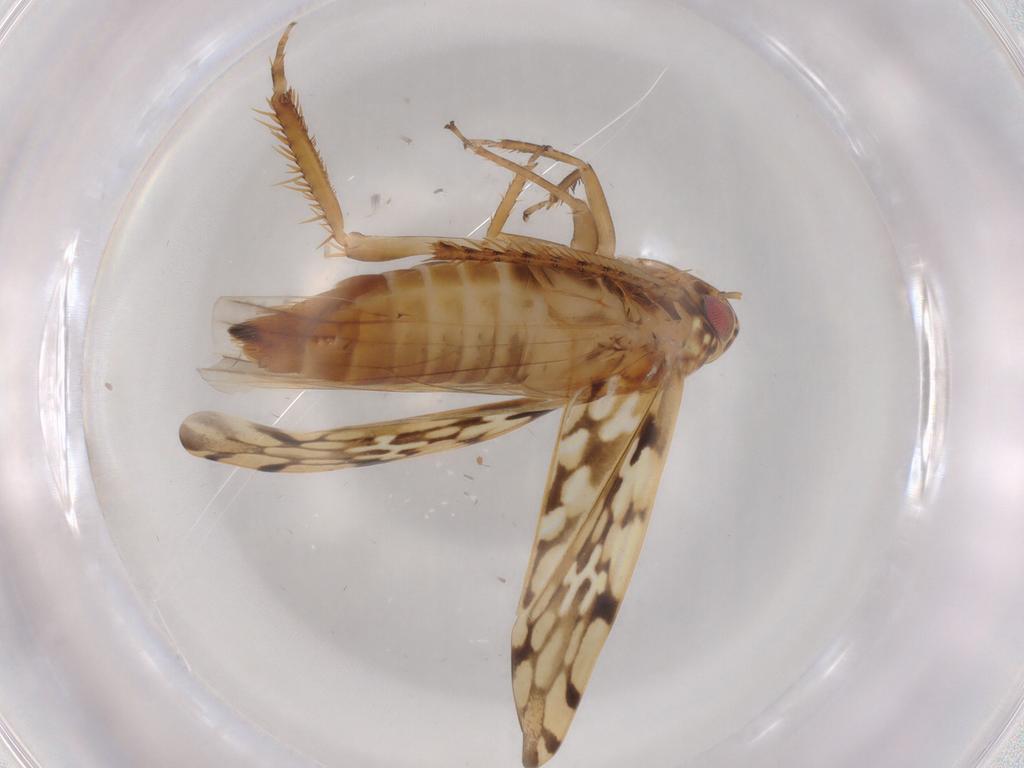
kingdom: Animalia
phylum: Arthropoda
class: Insecta
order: Hemiptera
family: Cicadellidae
